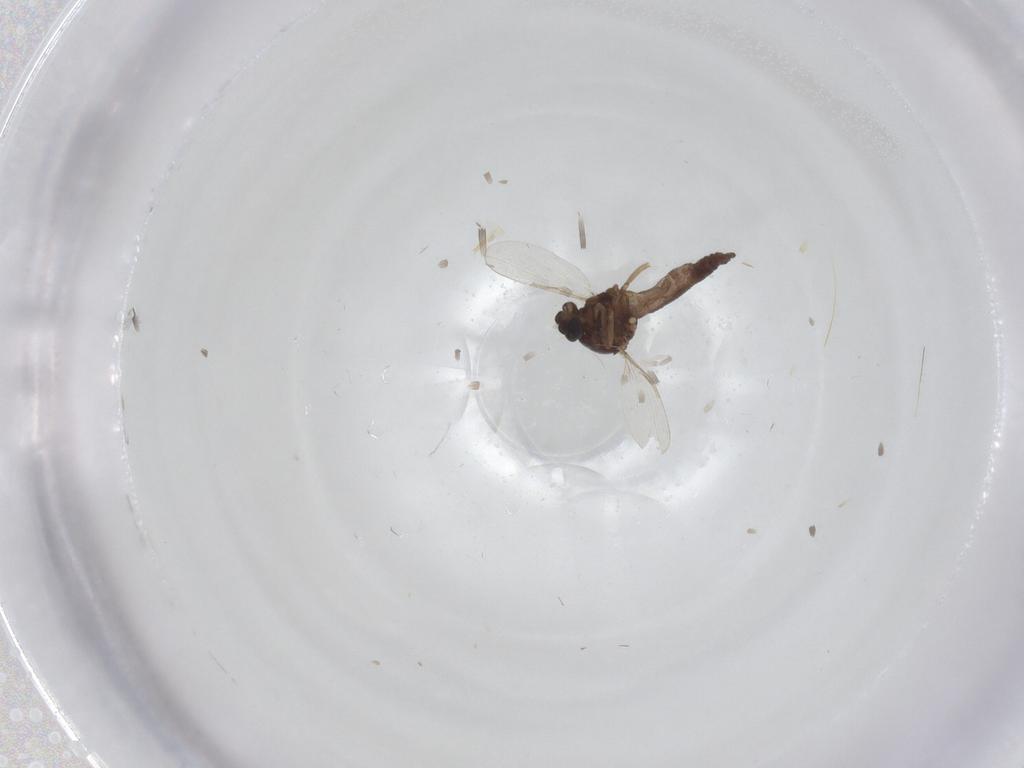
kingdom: Animalia
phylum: Arthropoda
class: Insecta
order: Diptera
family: Ceratopogonidae
